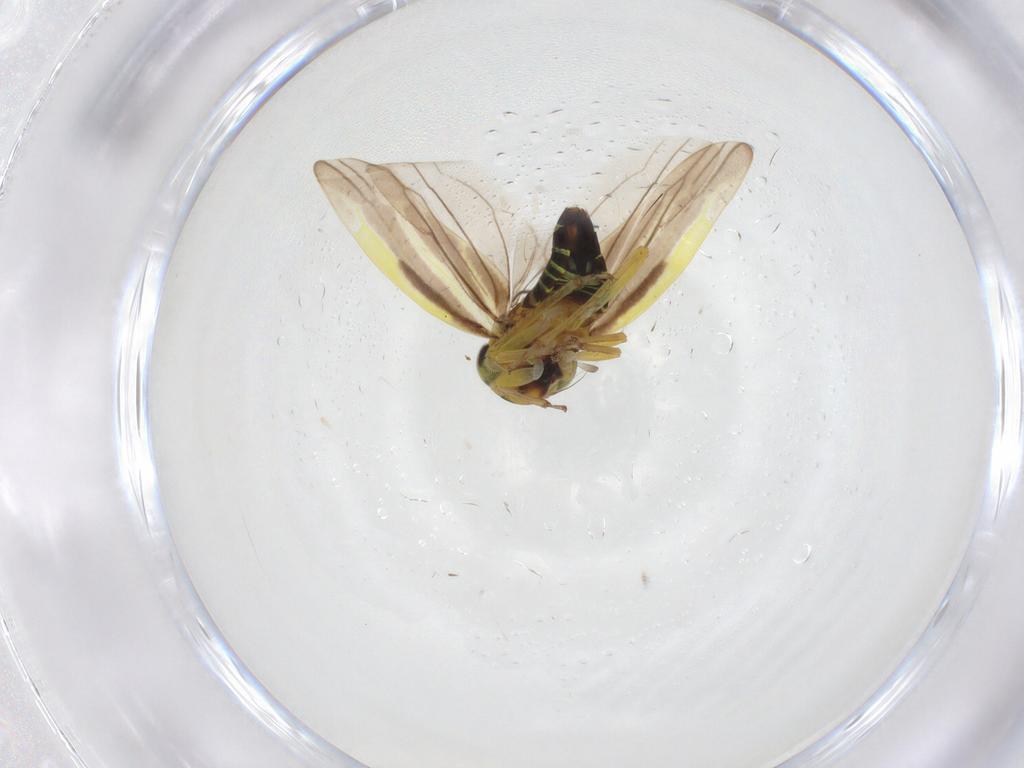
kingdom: Animalia
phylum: Arthropoda
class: Insecta
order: Hemiptera
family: Cicadellidae
